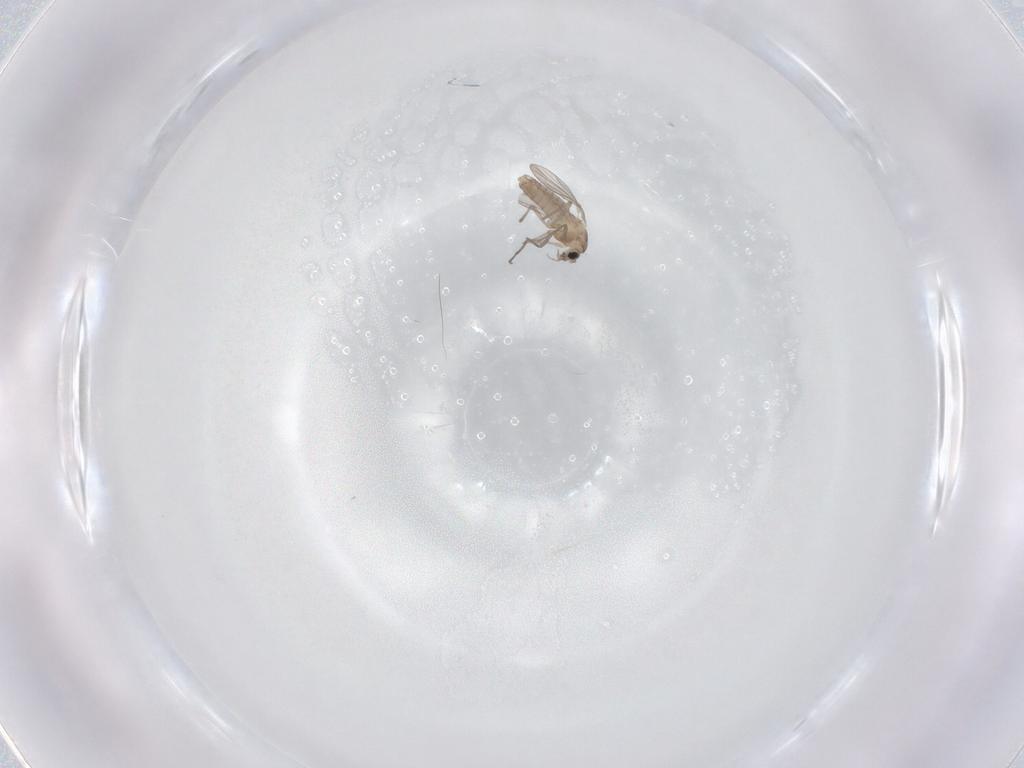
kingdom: Animalia
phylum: Arthropoda
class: Insecta
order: Diptera
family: Chironomidae
